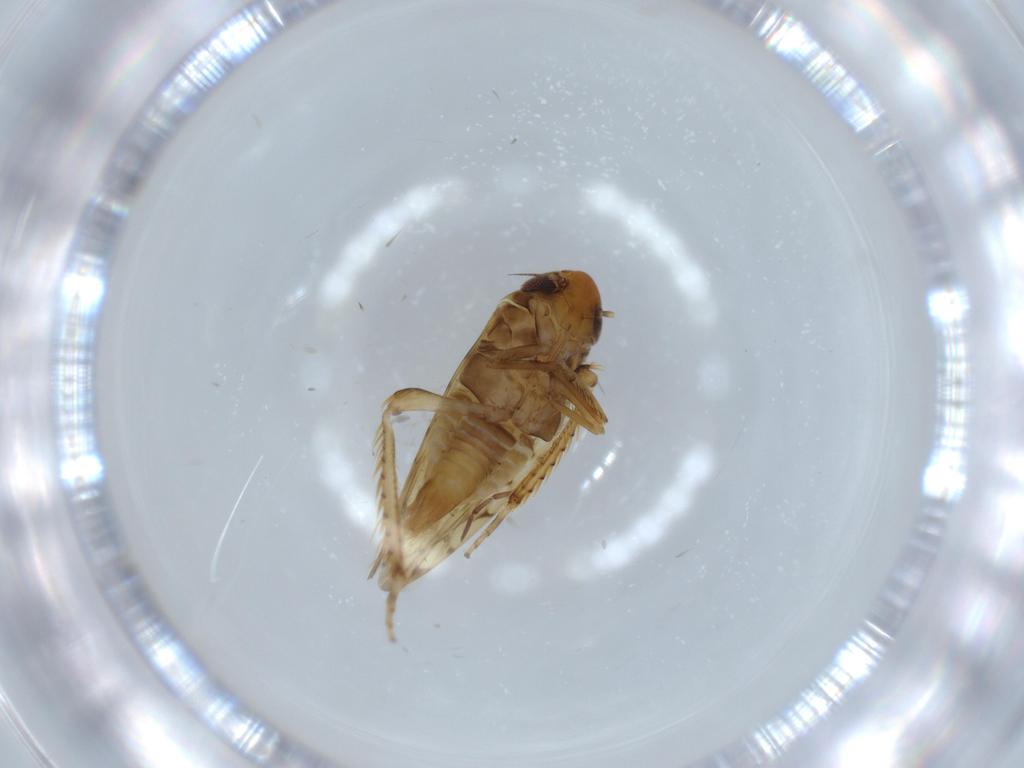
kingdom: Animalia
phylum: Arthropoda
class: Insecta
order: Hemiptera
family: Cicadellidae
